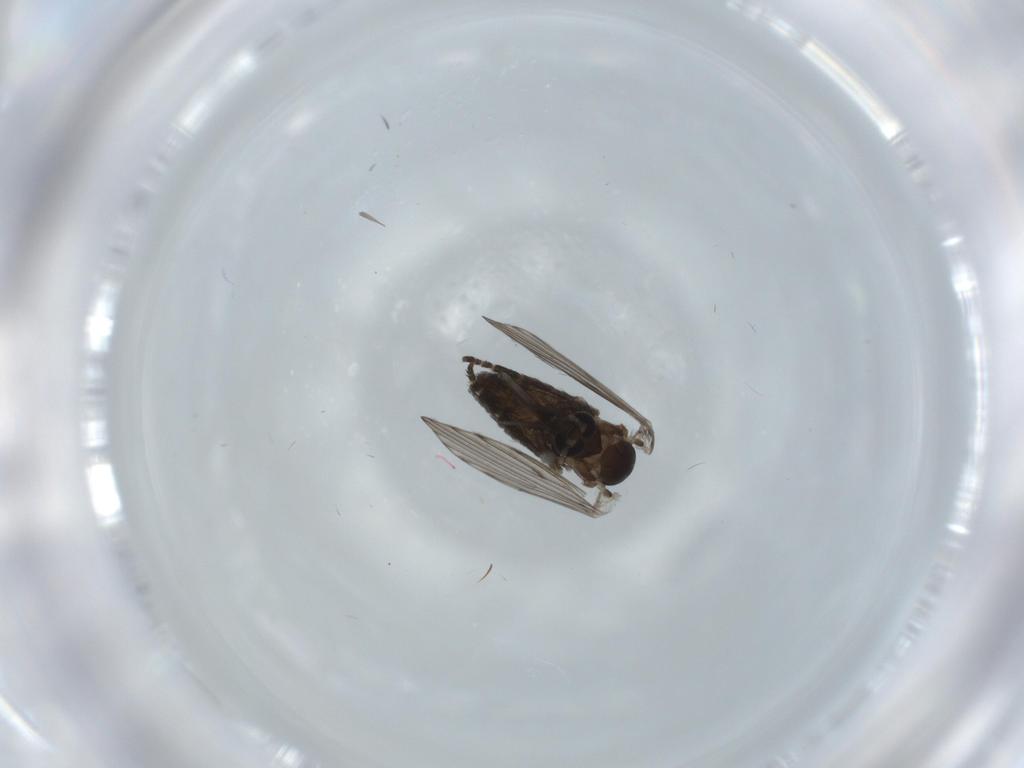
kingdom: Animalia
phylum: Arthropoda
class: Insecta
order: Diptera
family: Psychodidae
